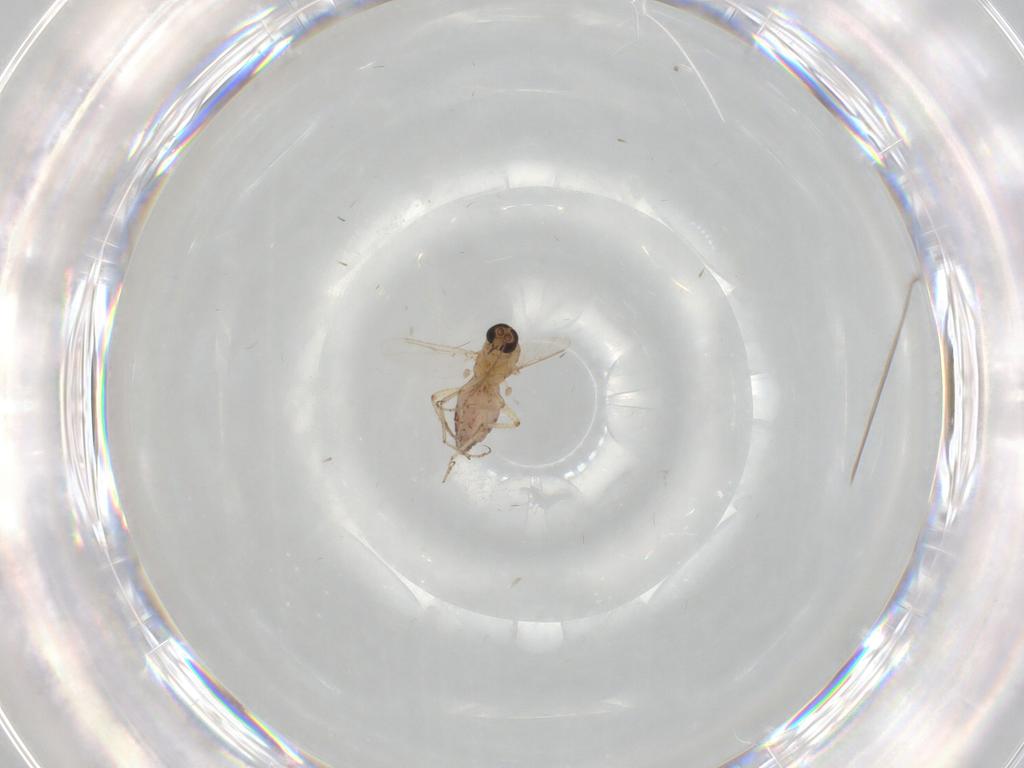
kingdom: Animalia
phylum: Arthropoda
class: Insecta
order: Diptera
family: Ceratopogonidae
